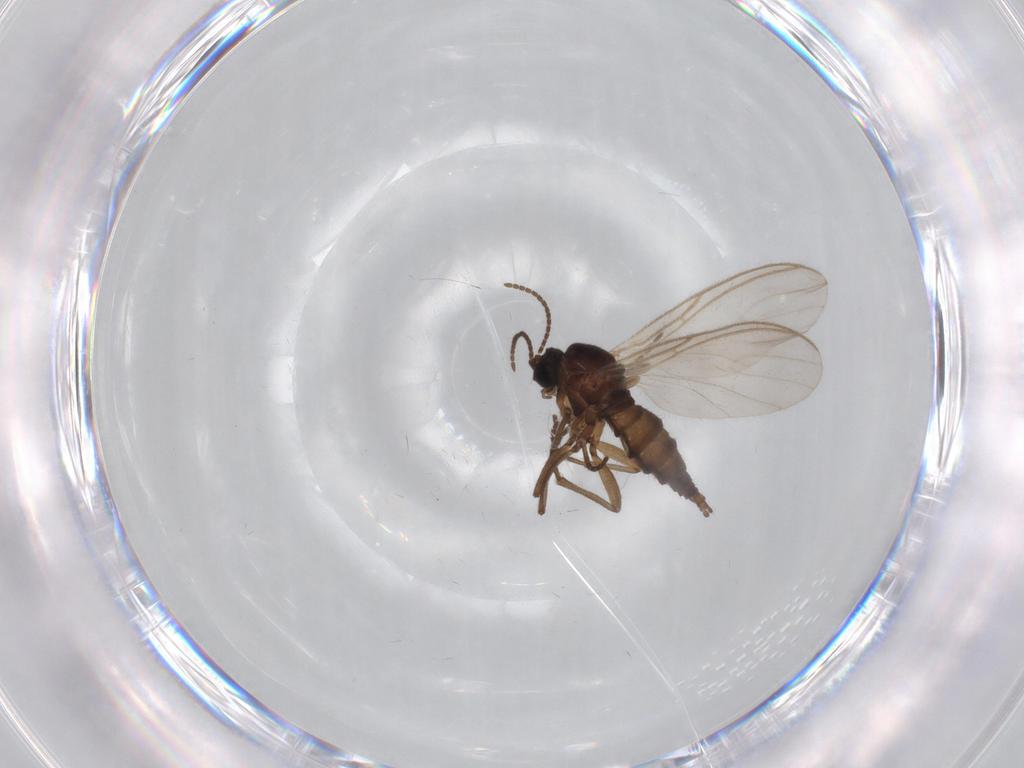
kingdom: Animalia
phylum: Arthropoda
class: Insecta
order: Diptera
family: Sciaridae
